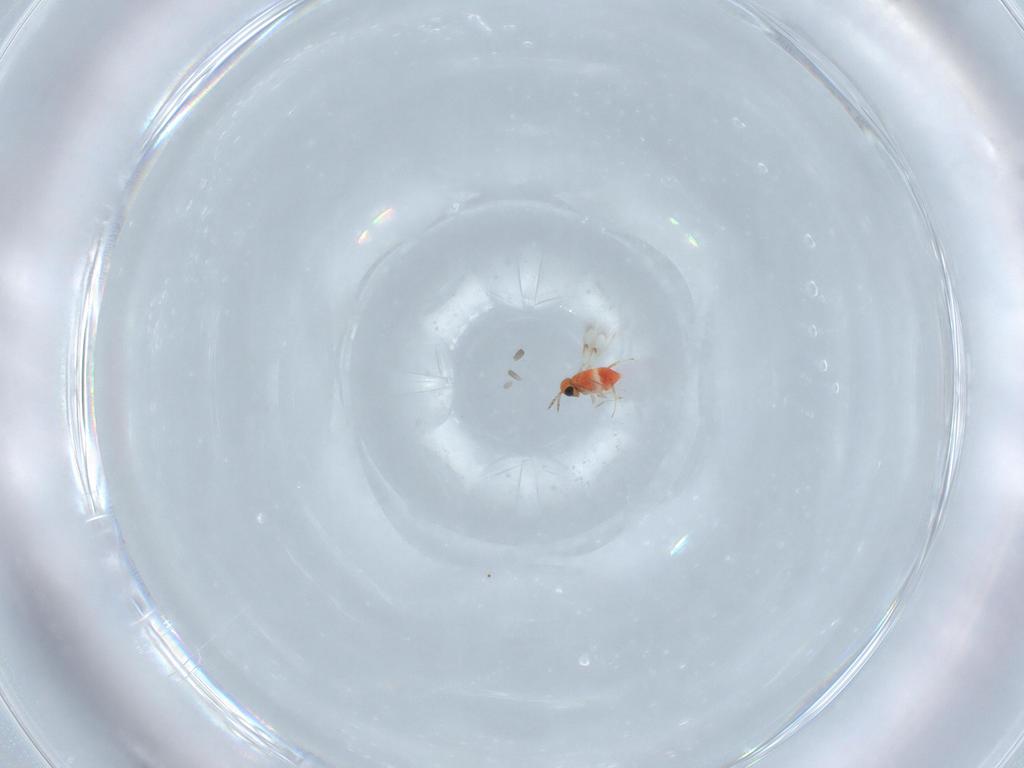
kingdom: Animalia
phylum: Arthropoda
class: Insecta
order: Hymenoptera
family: Trichogrammatidae
